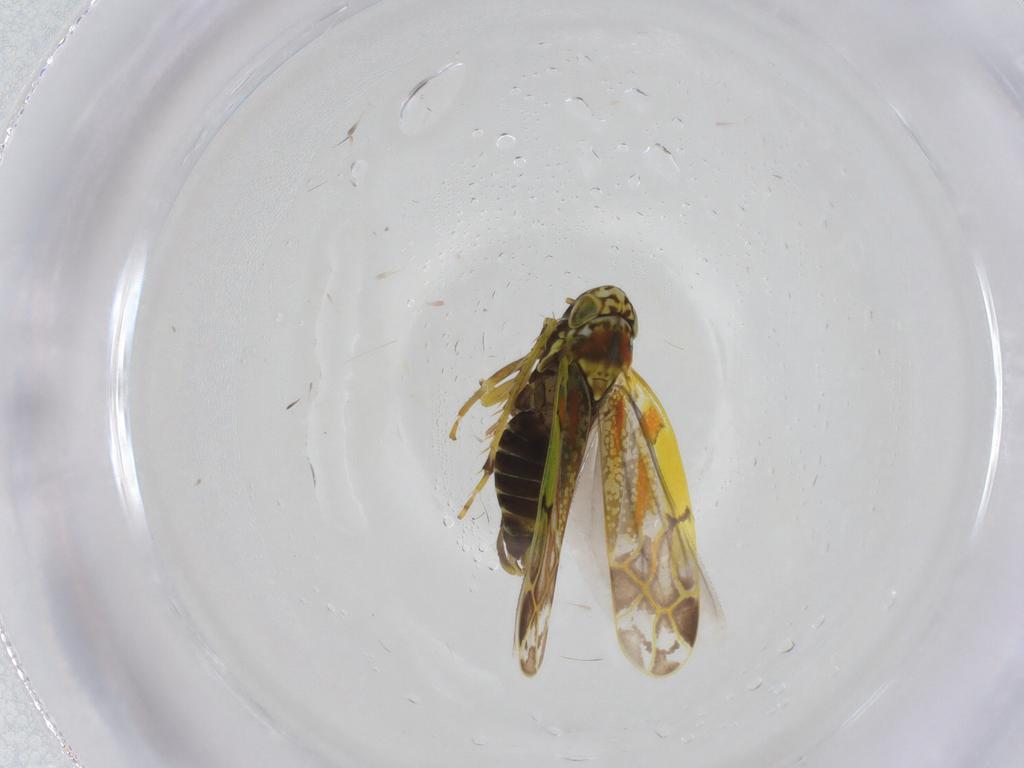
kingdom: Animalia
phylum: Arthropoda
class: Insecta
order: Hemiptera
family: Cicadellidae
